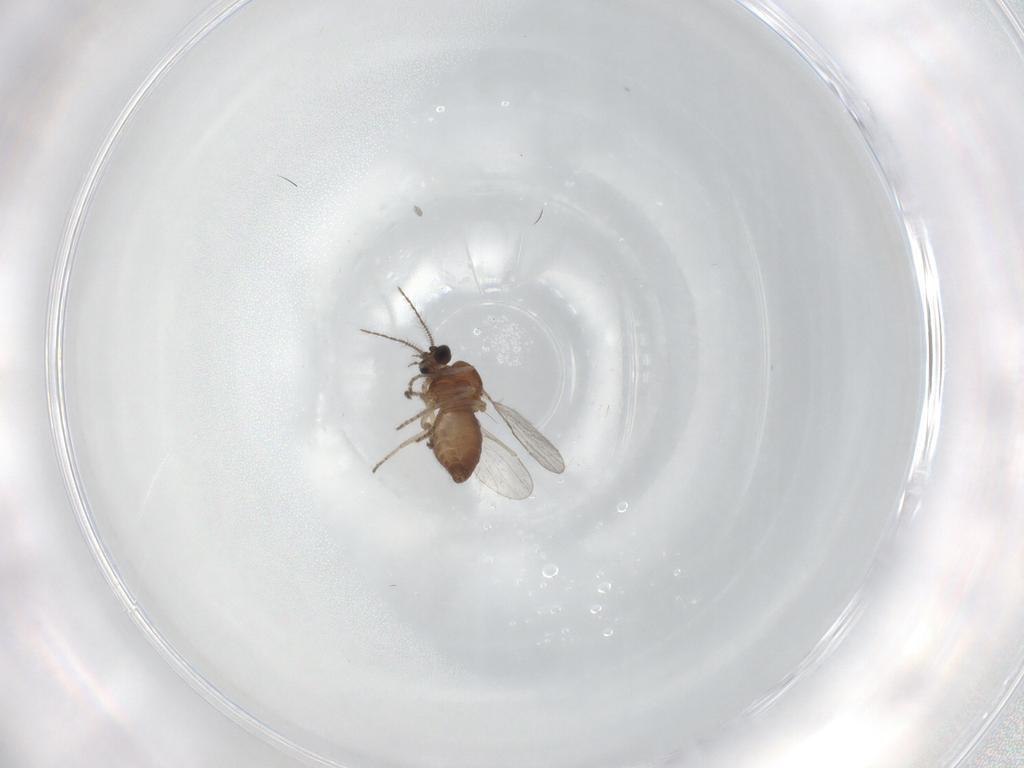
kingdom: Animalia
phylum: Arthropoda
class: Insecta
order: Diptera
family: Ceratopogonidae
